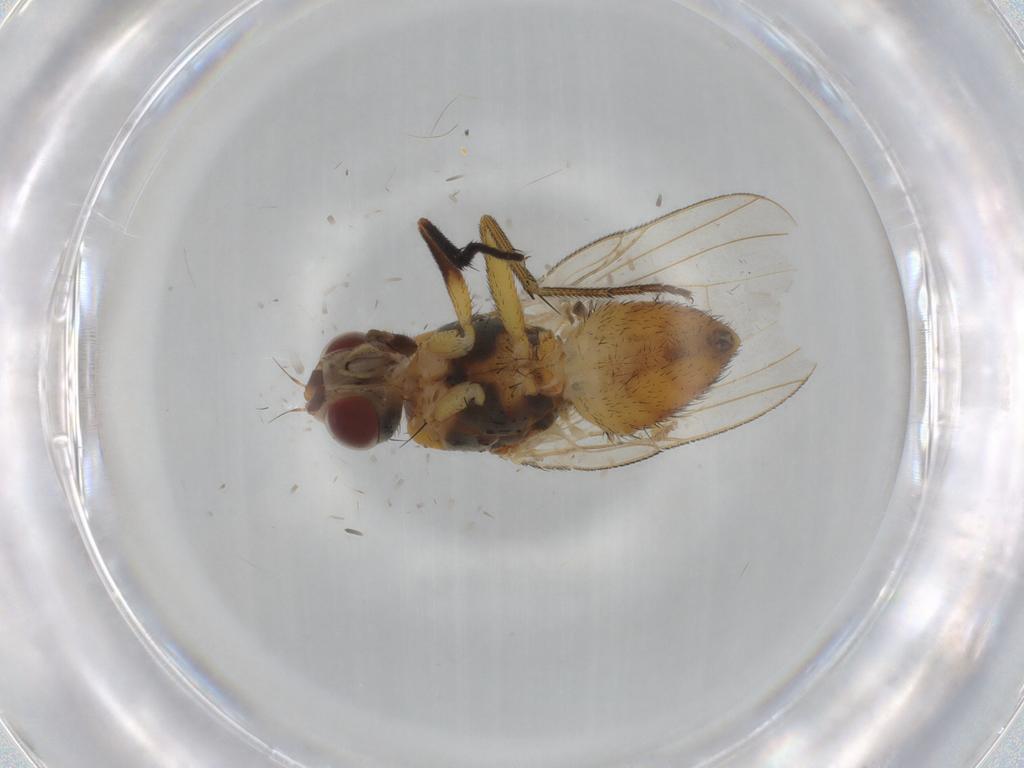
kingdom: Animalia
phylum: Arthropoda
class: Insecta
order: Diptera
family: Muscidae
